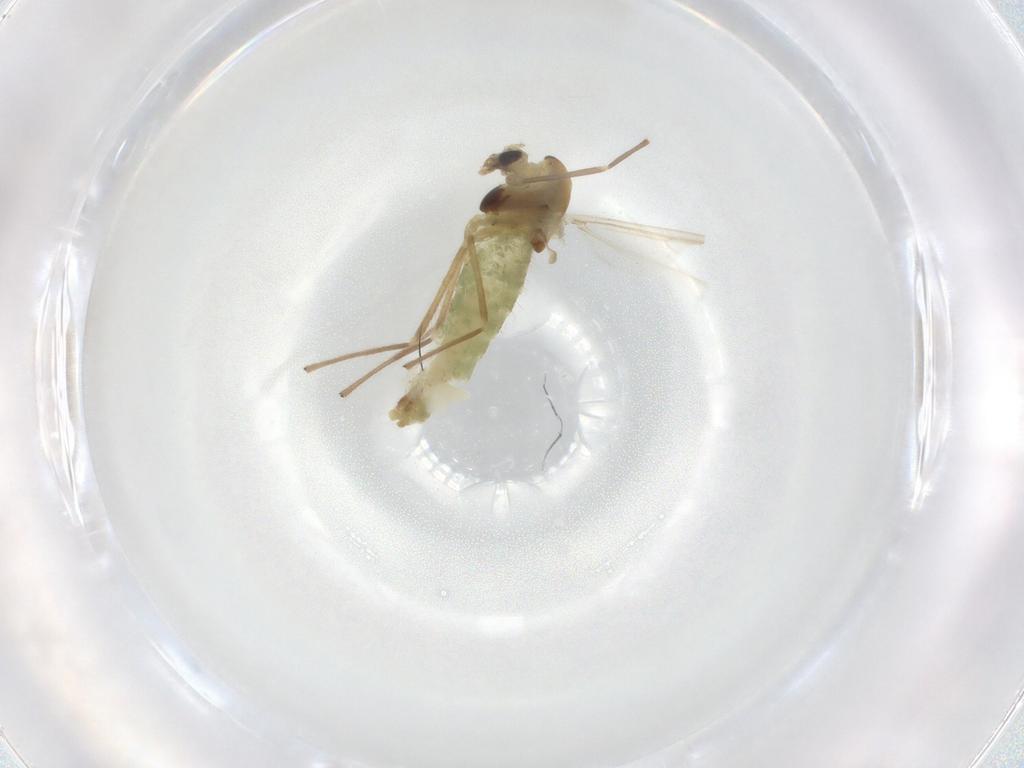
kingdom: Animalia
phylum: Arthropoda
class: Insecta
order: Diptera
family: Chironomidae
